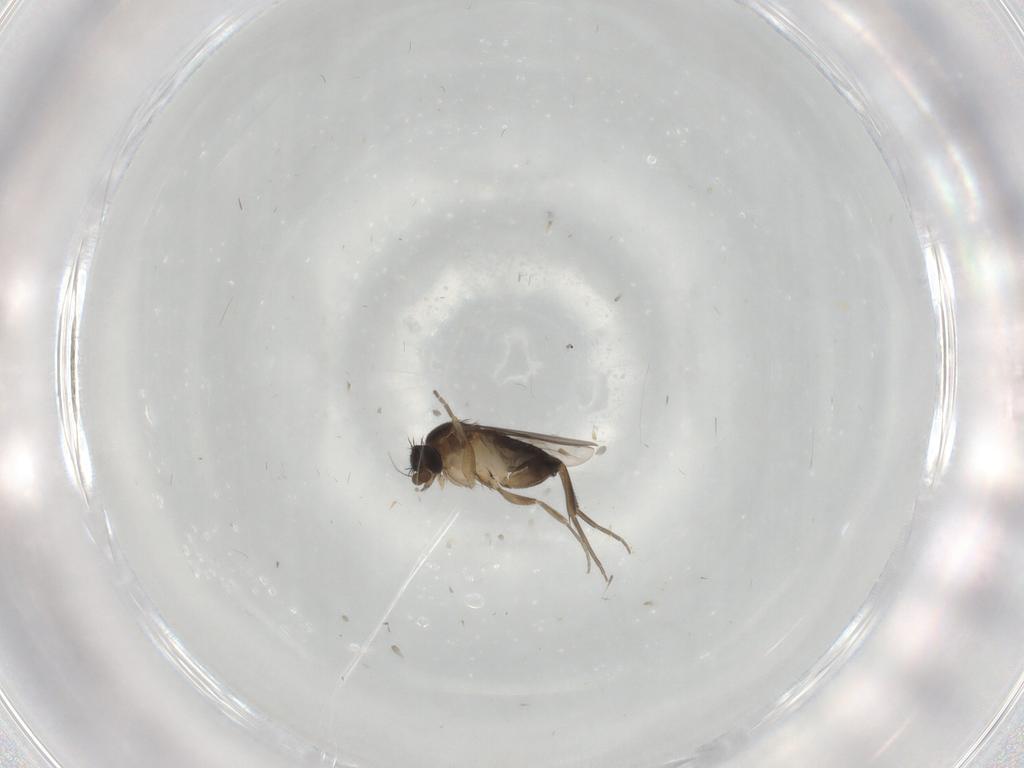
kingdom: Animalia
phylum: Arthropoda
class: Insecta
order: Diptera
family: Phoridae
